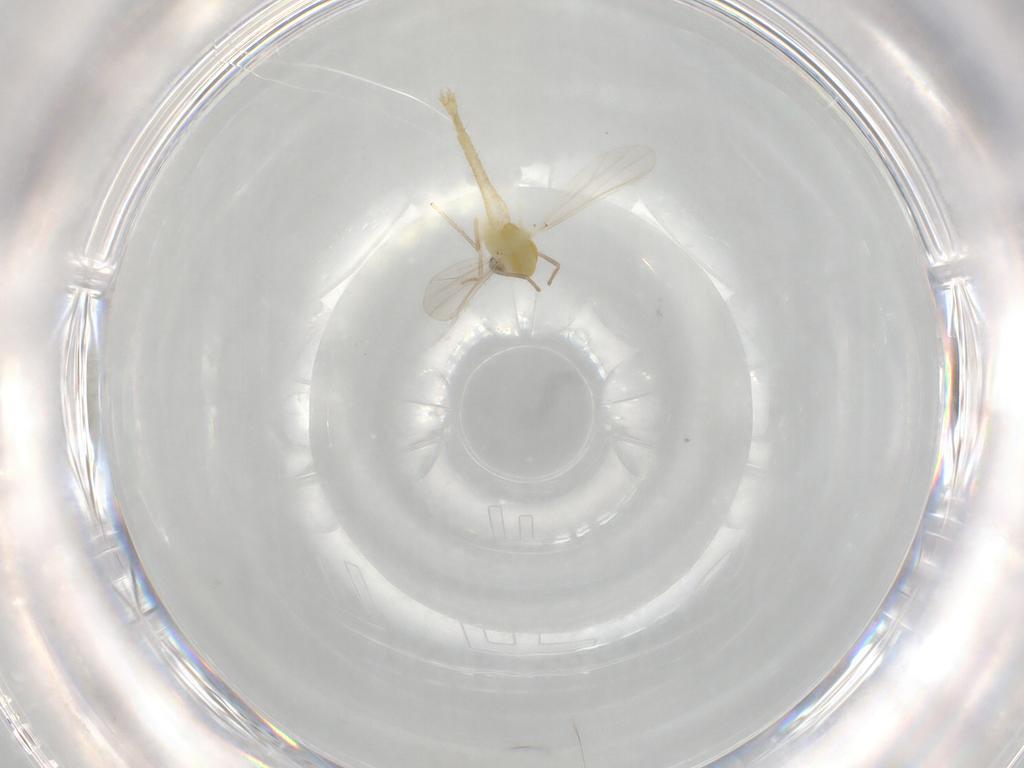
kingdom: Animalia
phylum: Arthropoda
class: Insecta
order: Diptera
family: Chironomidae
